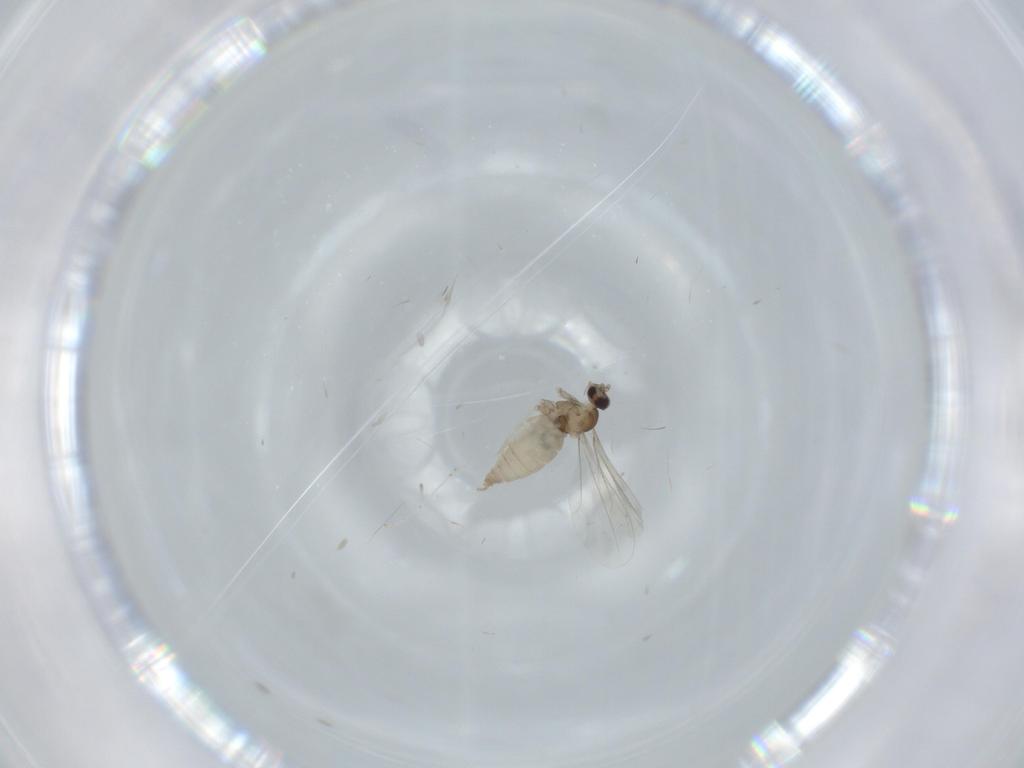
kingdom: Animalia
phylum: Arthropoda
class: Insecta
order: Diptera
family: Cecidomyiidae
